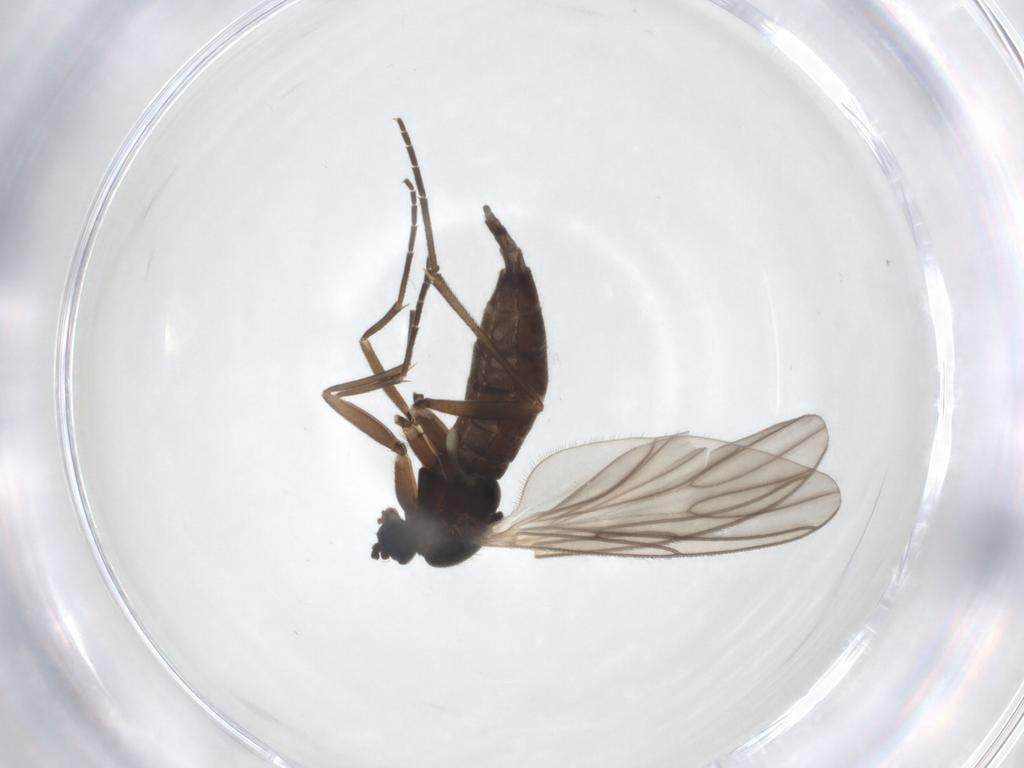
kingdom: Animalia
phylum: Arthropoda
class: Insecta
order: Diptera
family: Sciaridae
